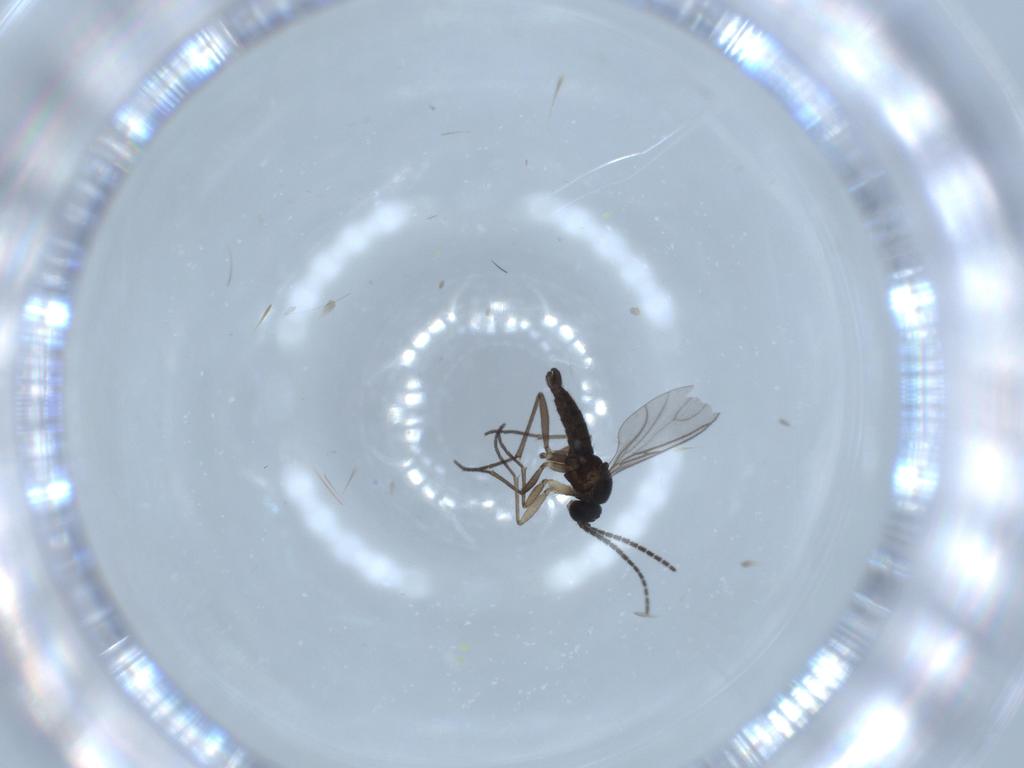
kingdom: Animalia
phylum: Arthropoda
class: Insecta
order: Diptera
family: Sciaridae
